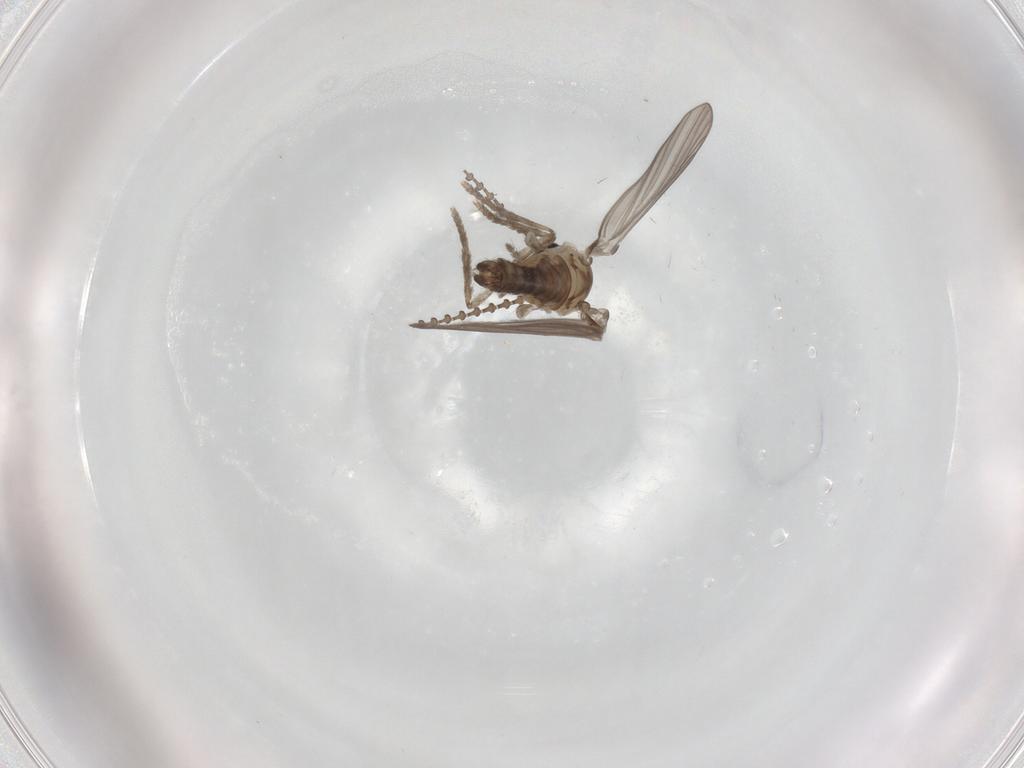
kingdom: Animalia
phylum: Arthropoda
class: Insecta
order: Diptera
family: Psychodidae
